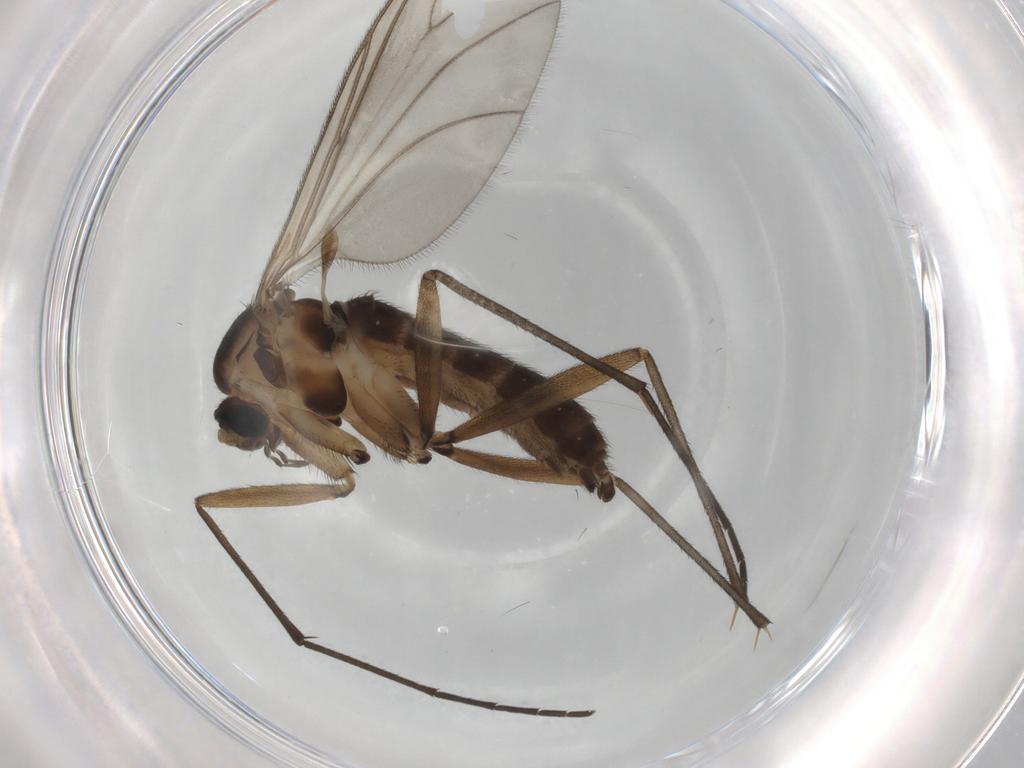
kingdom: Animalia
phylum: Arthropoda
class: Insecta
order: Diptera
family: Sciaridae
